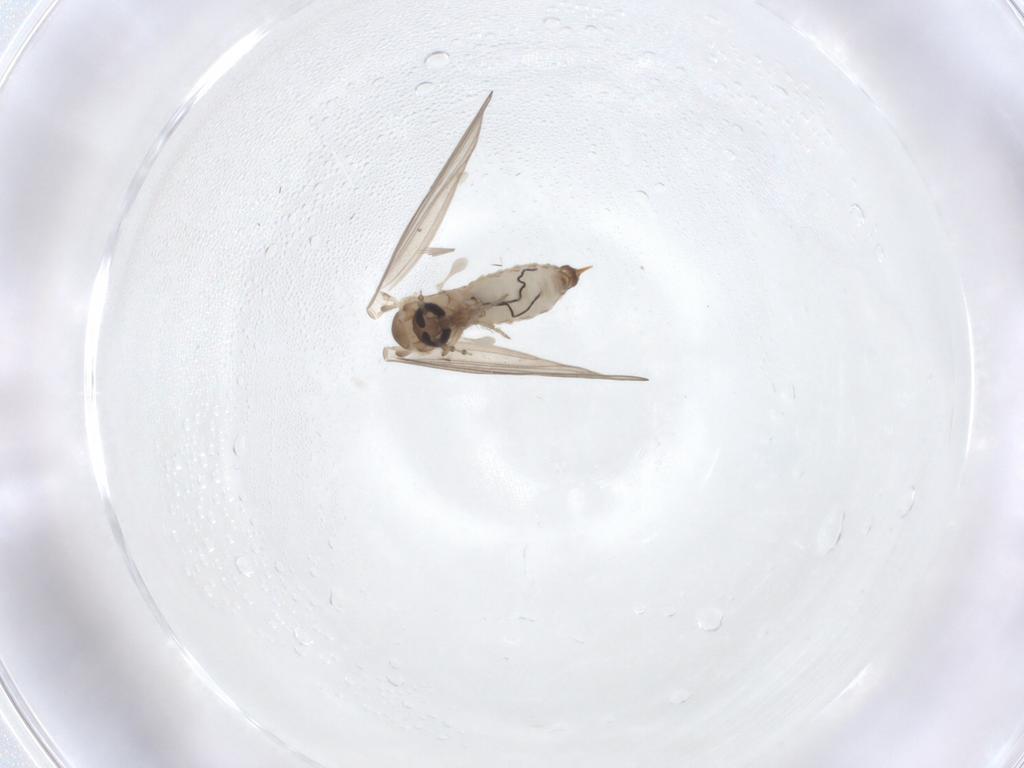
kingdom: Animalia
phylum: Arthropoda
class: Insecta
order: Diptera
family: Psychodidae
